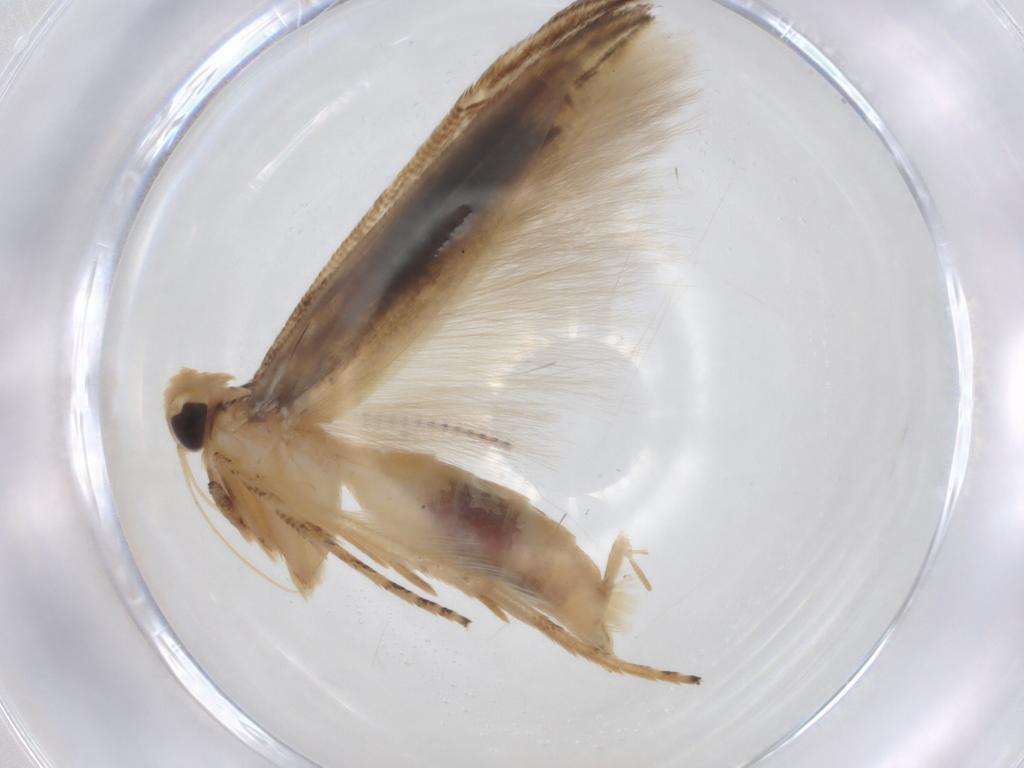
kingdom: Animalia
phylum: Arthropoda
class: Insecta
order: Lepidoptera
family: Momphidae
